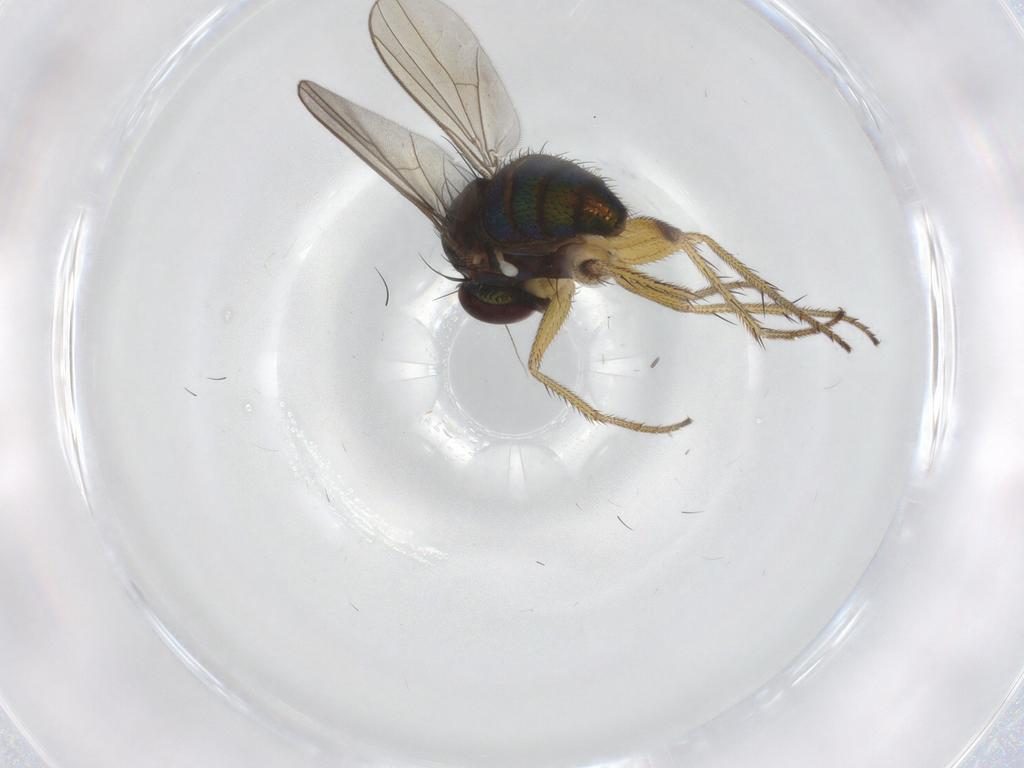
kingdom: Animalia
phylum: Arthropoda
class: Insecta
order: Diptera
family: Dolichopodidae
